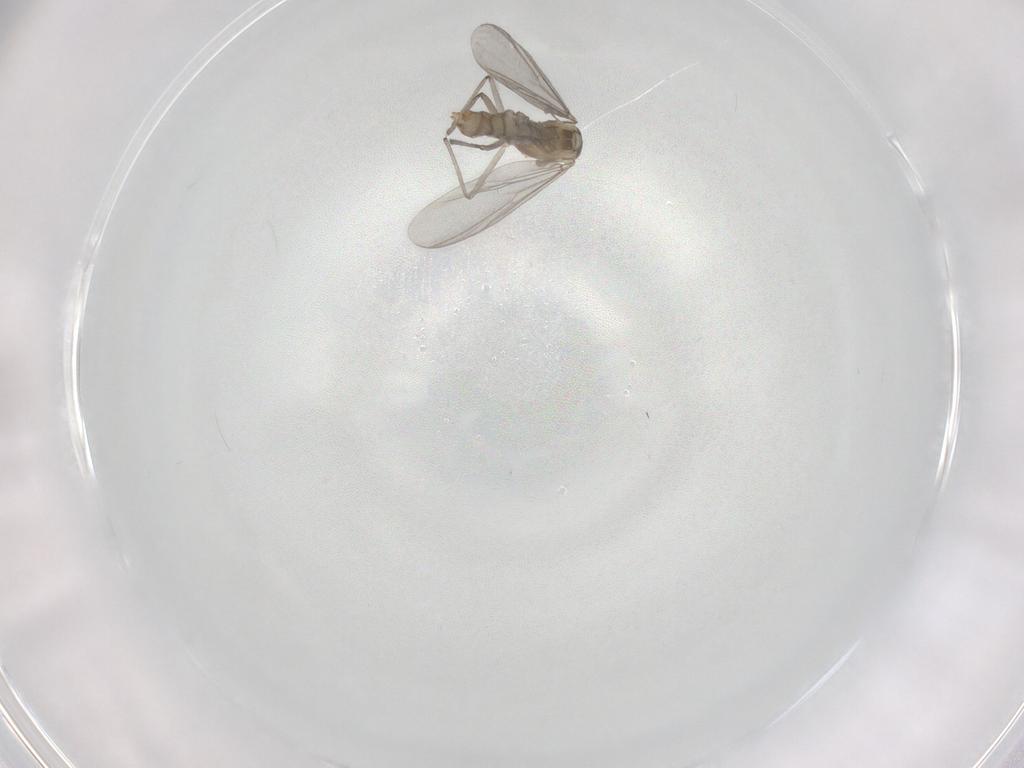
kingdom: Animalia
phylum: Arthropoda
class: Insecta
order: Diptera
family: Chironomidae
